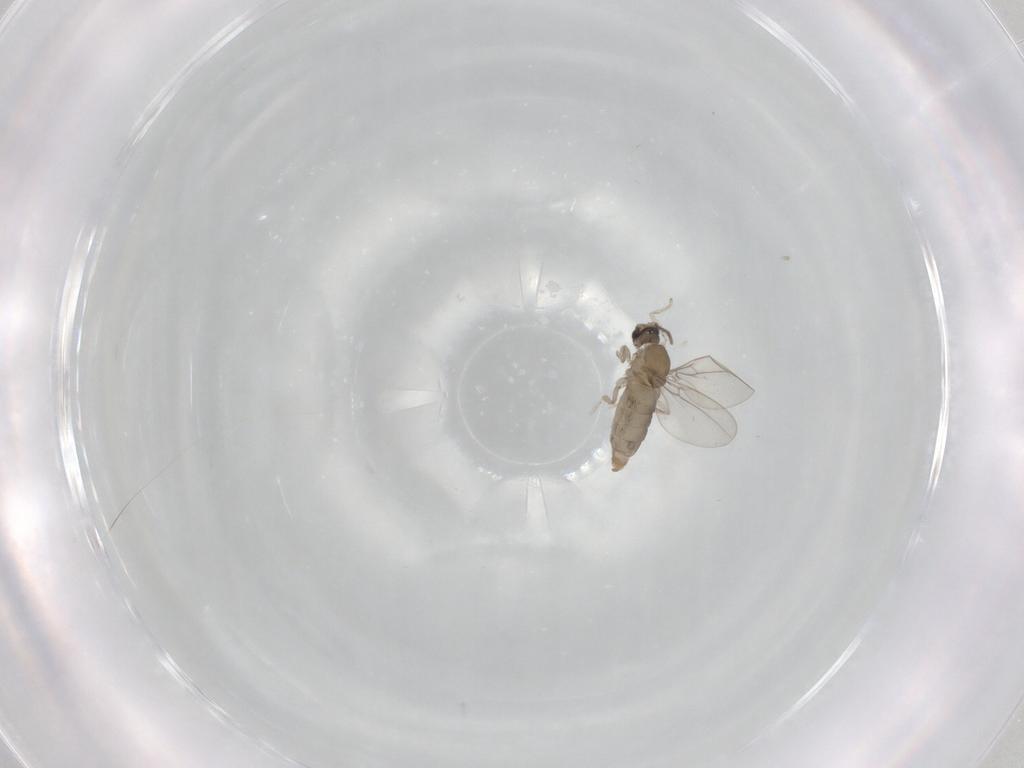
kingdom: Animalia
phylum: Arthropoda
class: Insecta
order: Diptera
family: Cecidomyiidae
